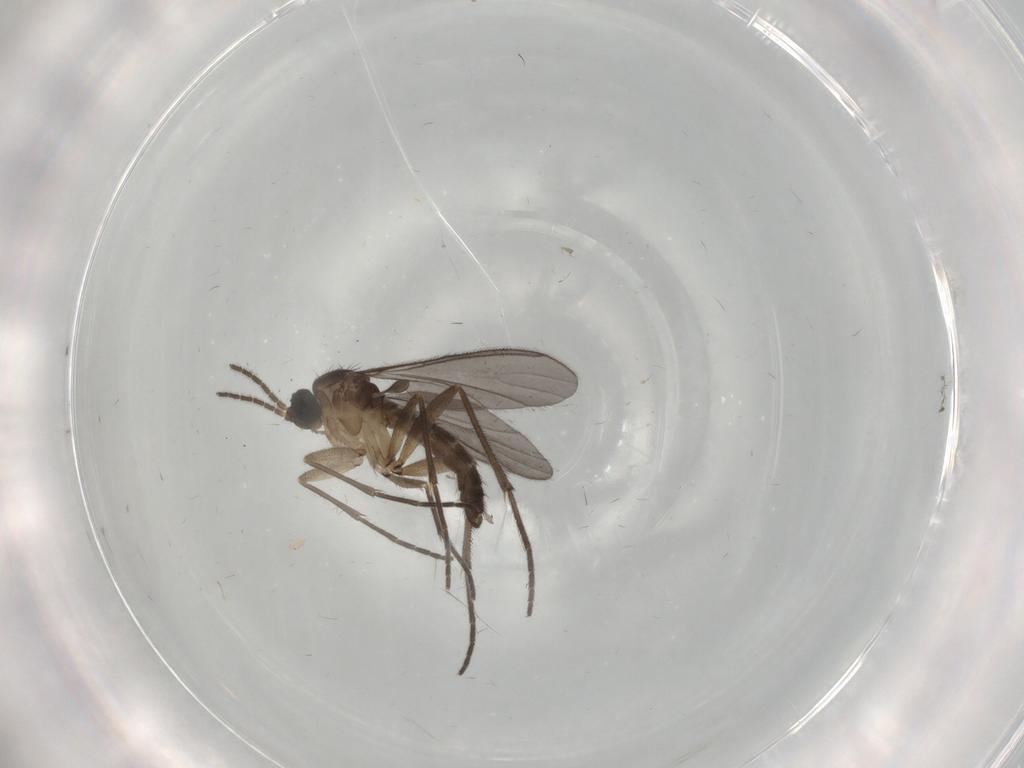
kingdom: Animalia
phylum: Arthropoda
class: Insecta
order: Diptera
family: Sciaridae
